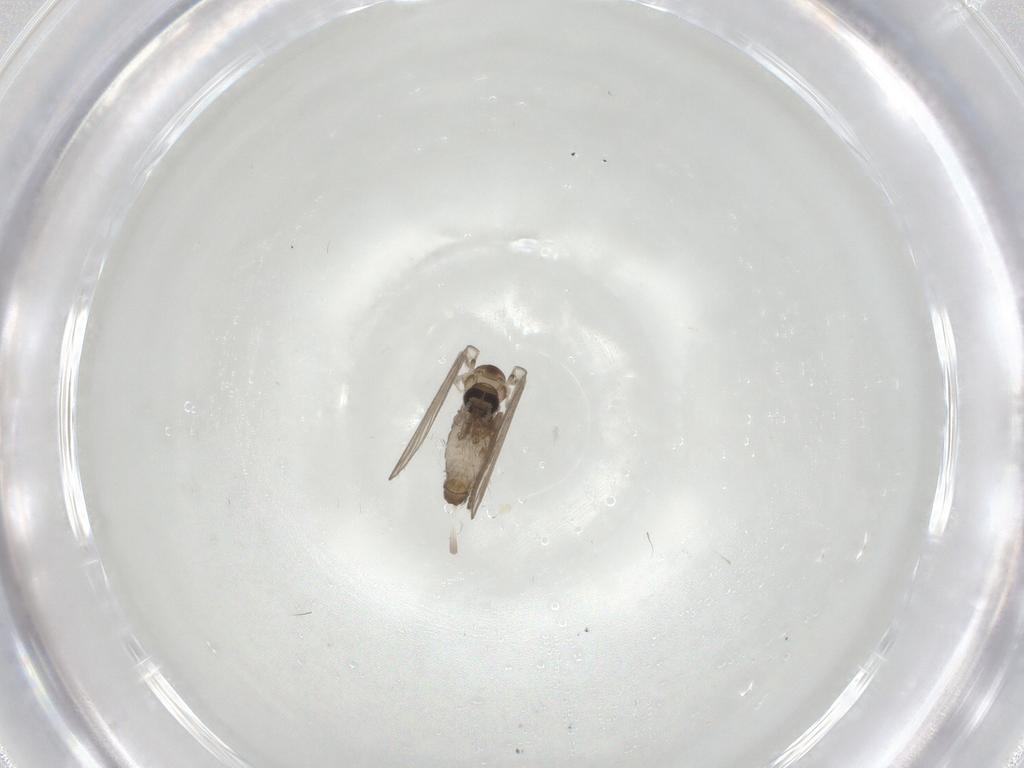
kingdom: Animalia
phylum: Arthropoda
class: Insecta
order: Diptera
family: Psychodidae
